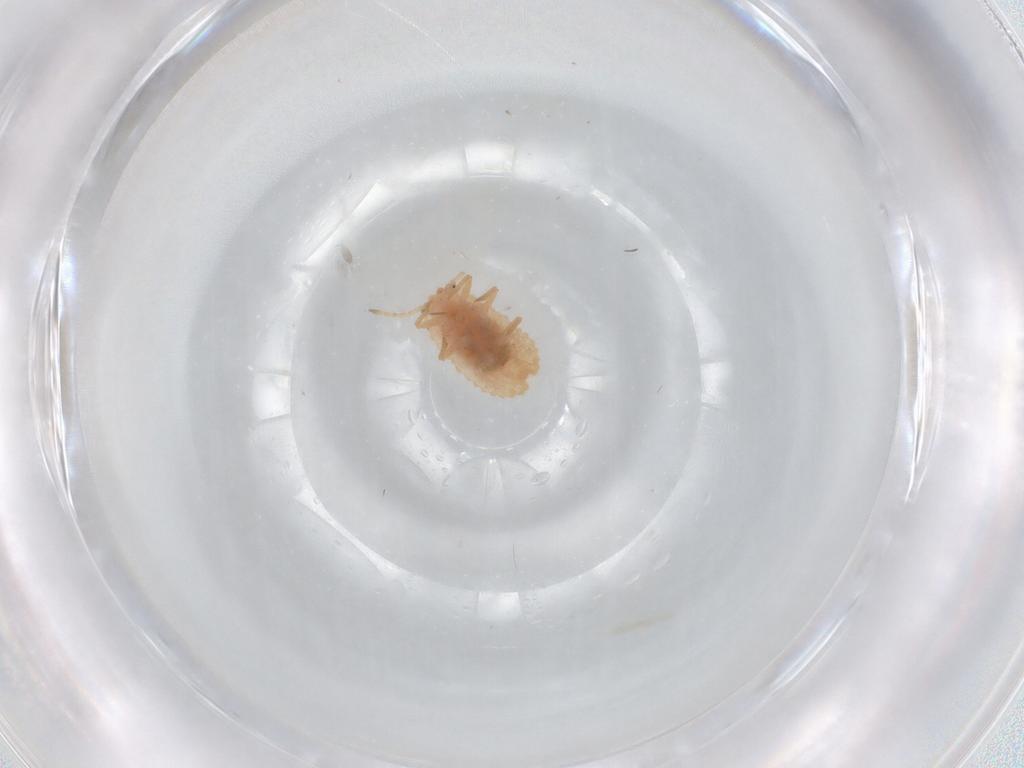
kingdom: Animalia
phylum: Arthropoda
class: Insecta
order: Hemiptera
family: Coccoidea_incertae_sedis
